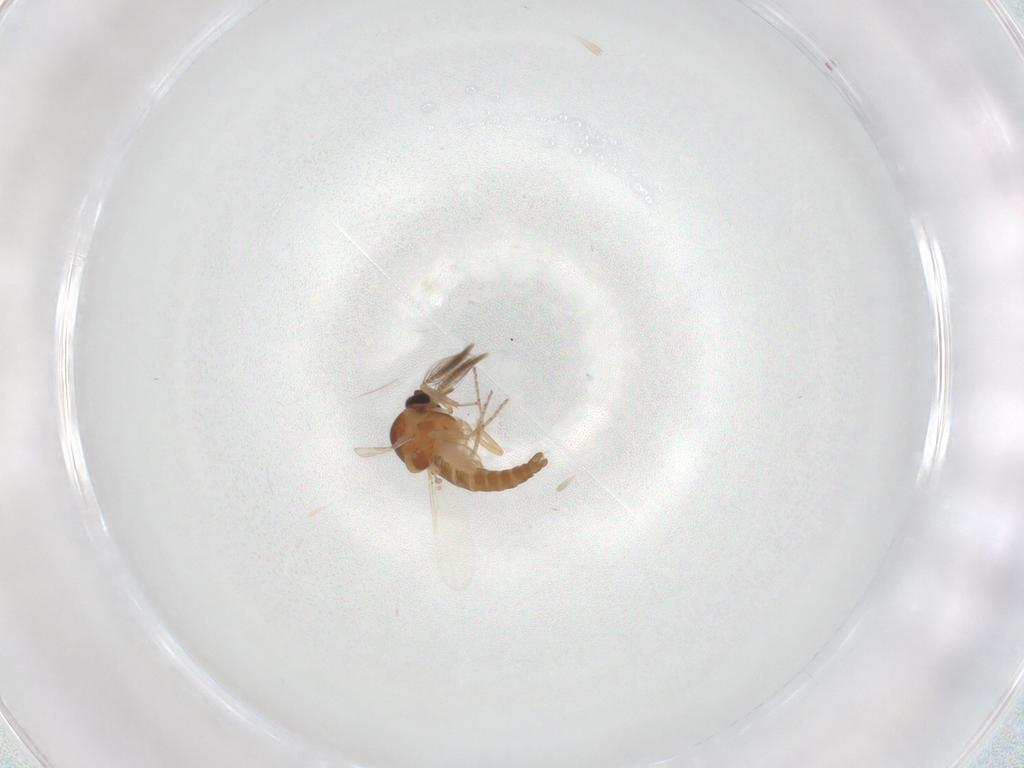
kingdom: Animalia
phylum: Arthropoda
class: Insecta
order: Diptera
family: Ceratopogonidae
